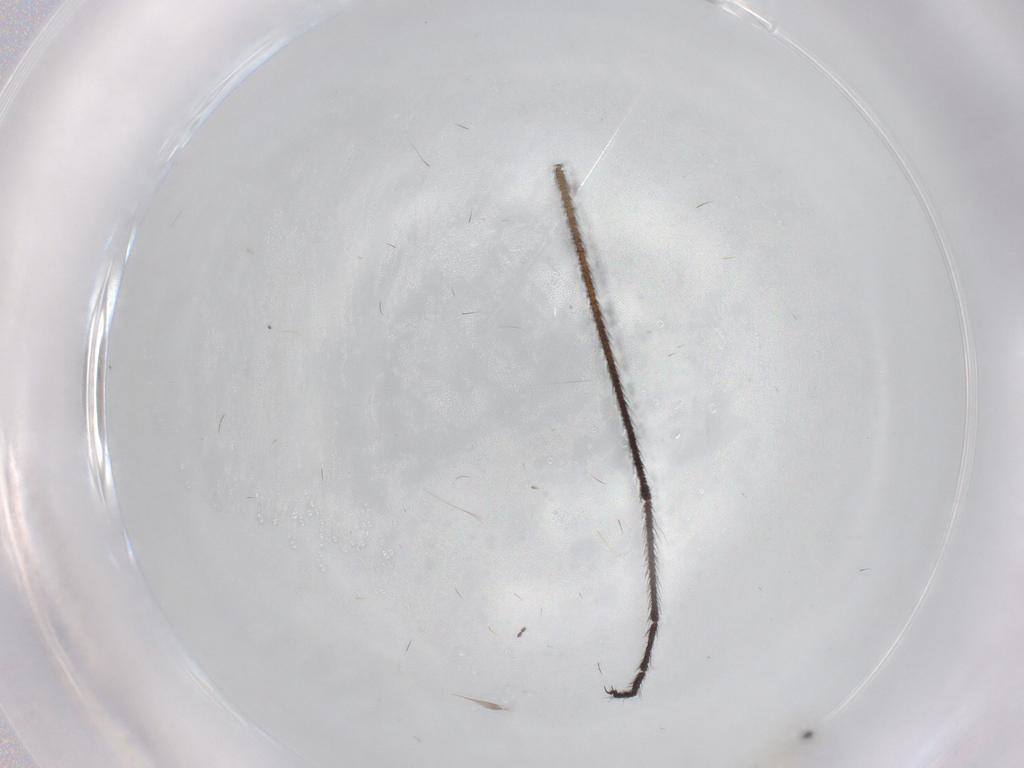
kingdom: Animalia
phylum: Arthropoda
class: Insecta
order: Diptera
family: Limoniidae
